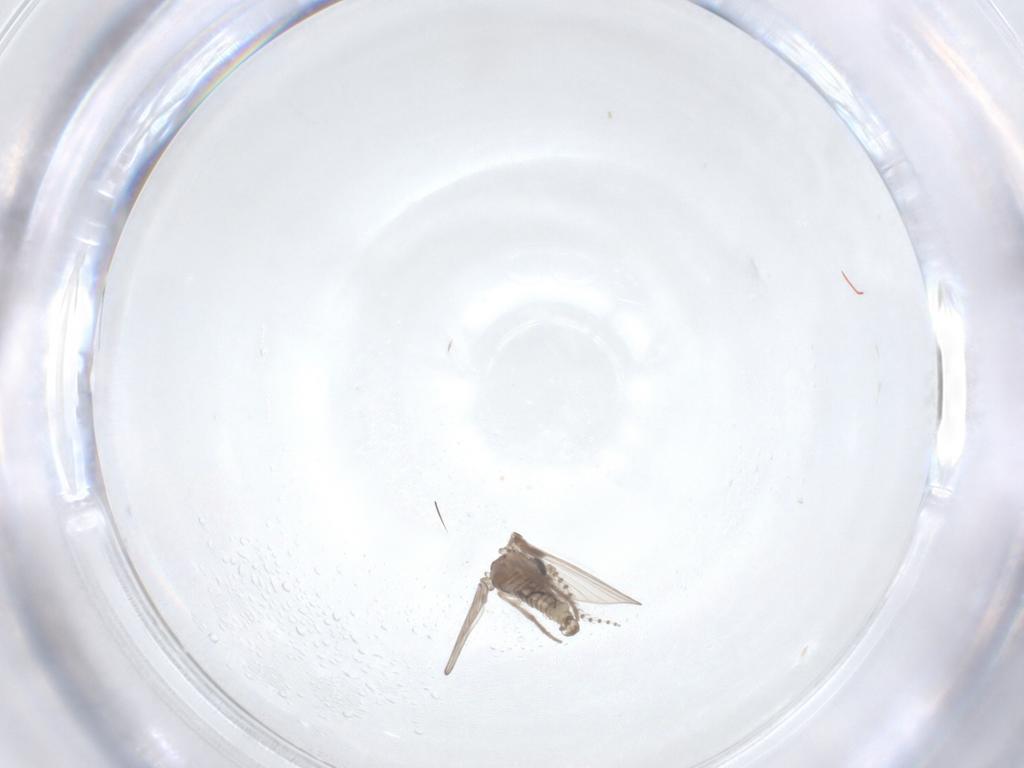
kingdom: Animalia
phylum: Arthropoda
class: Insecta
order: Diptera
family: Psychodidae
